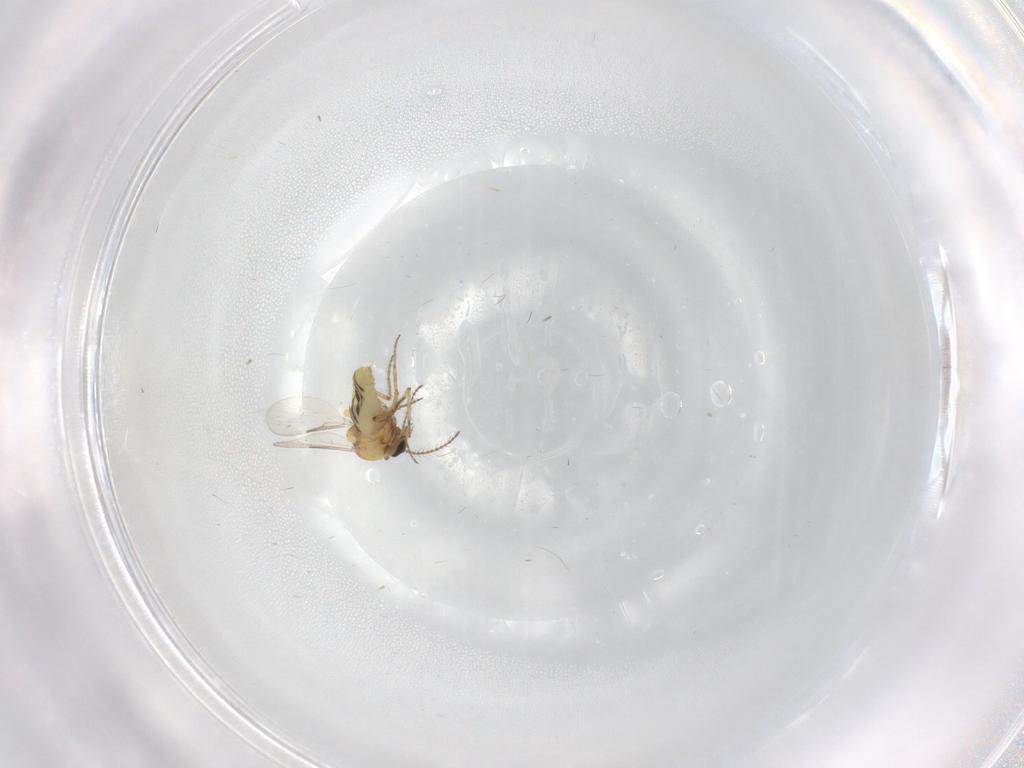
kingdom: Animalia
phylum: Arthropoda
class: Insecta
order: Diptera
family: Ceratopogonidae
